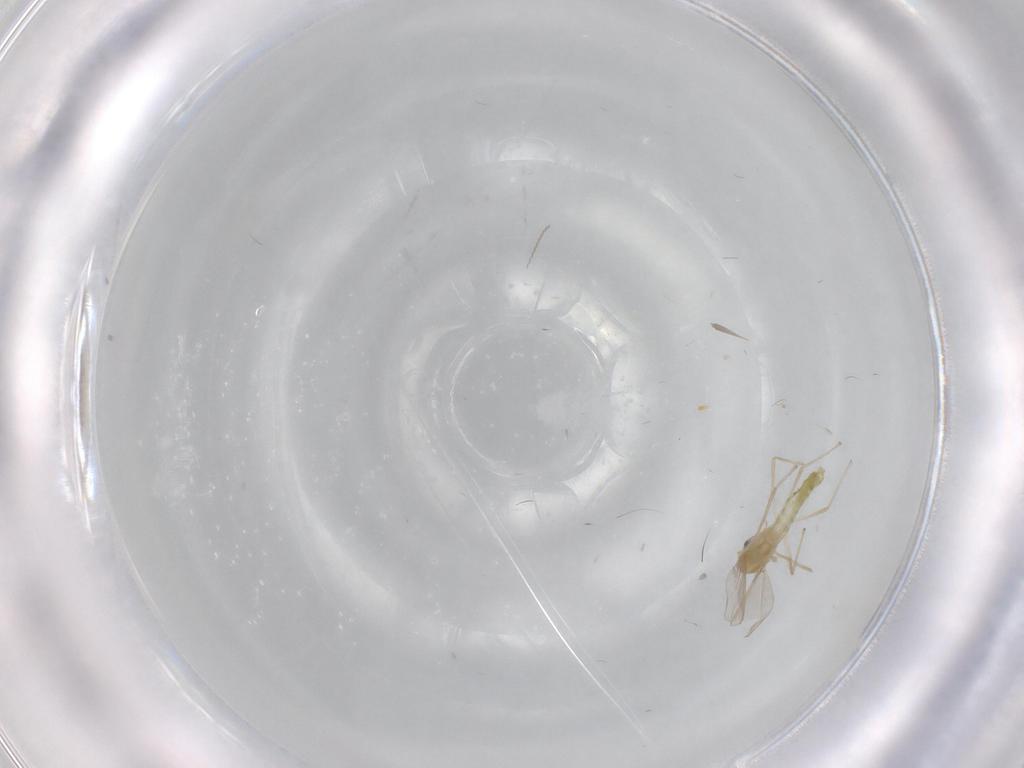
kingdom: Animalia
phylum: Arthropoda
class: Insecta
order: Diptera
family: Chironomidae
